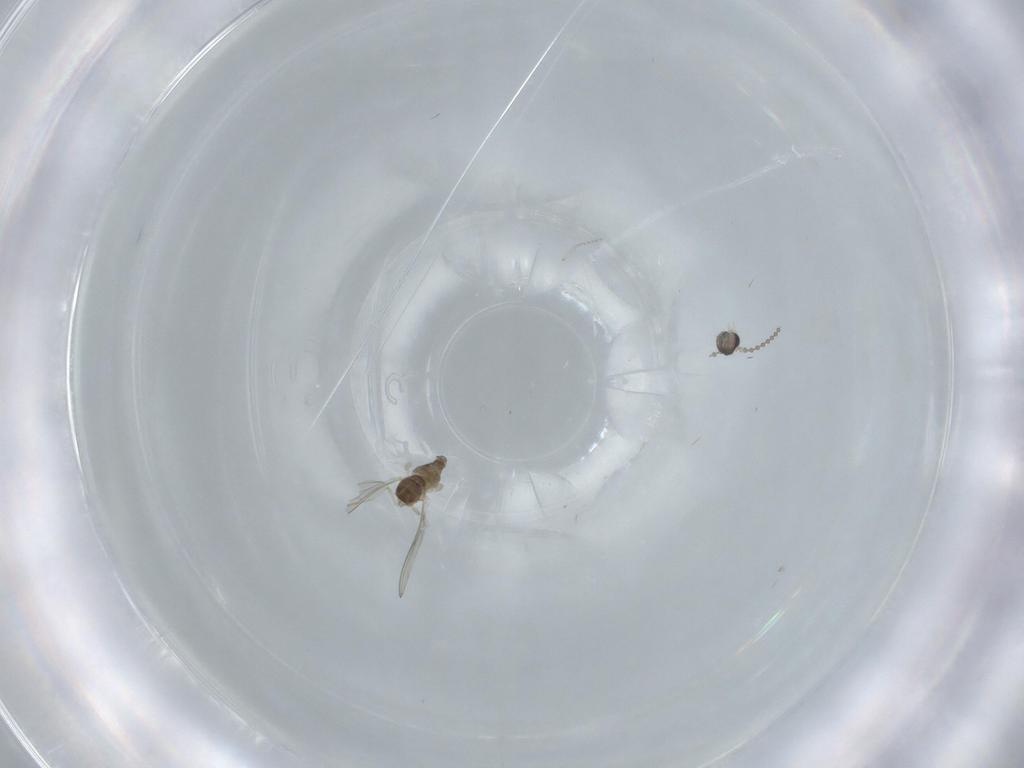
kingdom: Animalia
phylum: Arthropoda
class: Insecta
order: Diptera
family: Cecidomyiidae
